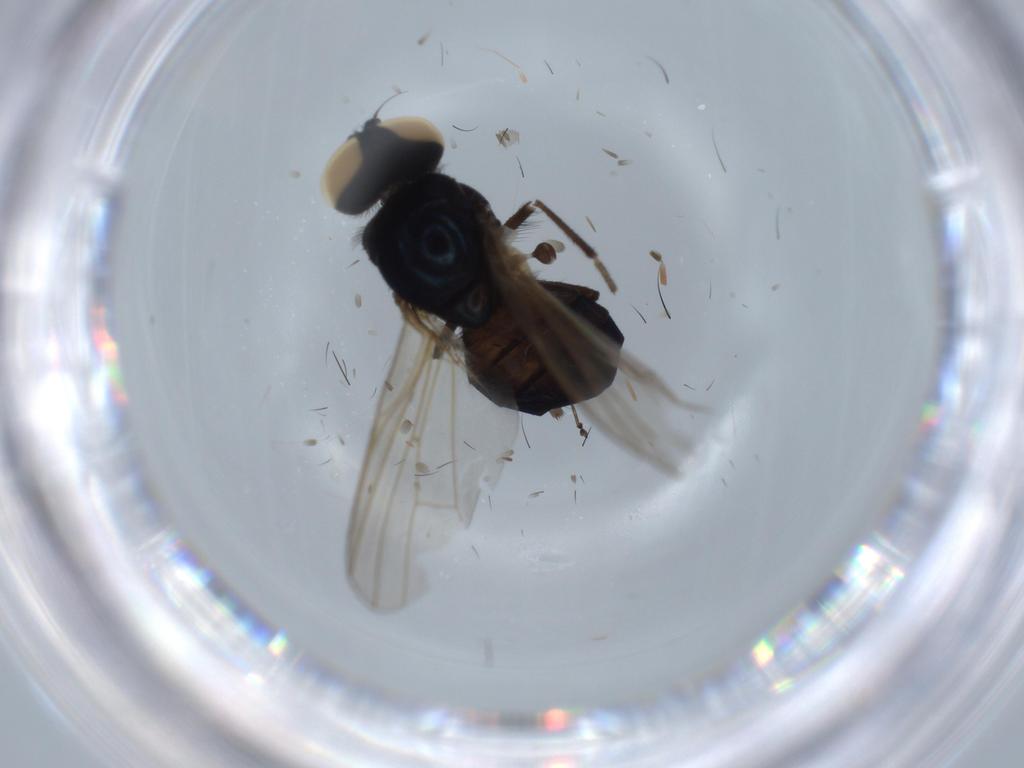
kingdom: Animalia
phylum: Arthropoda
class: Insecta
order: Diptera
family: Lonchaeidae
